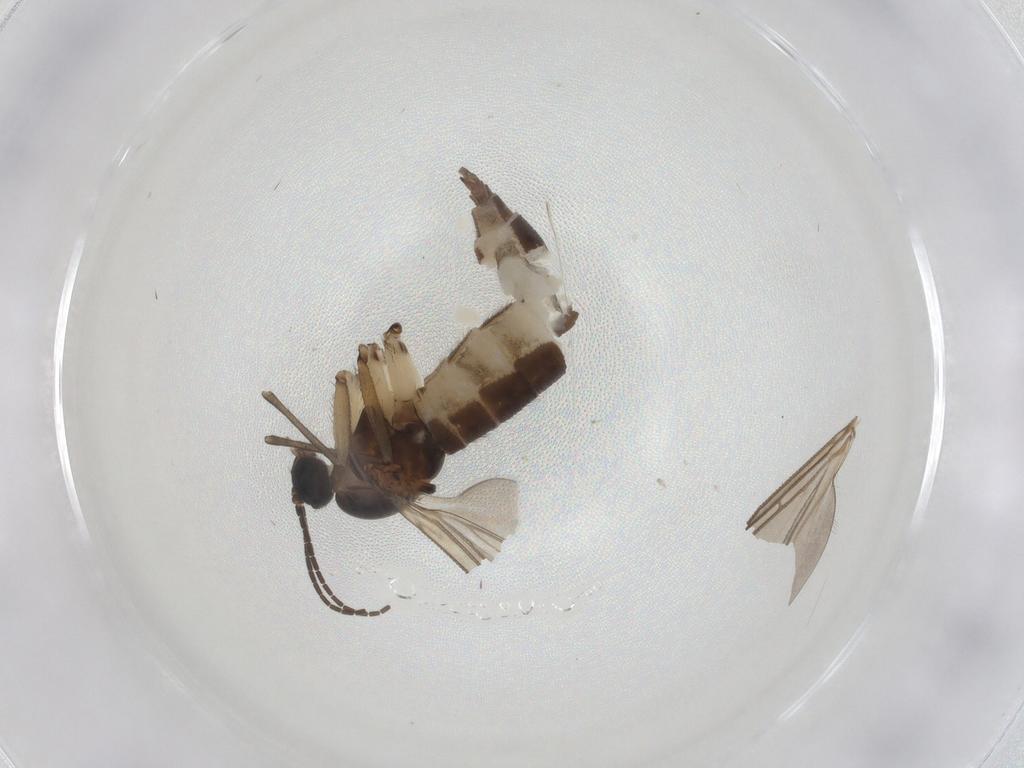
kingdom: Animalia
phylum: Arthropoda
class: Insecta
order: Diptera
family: Sciaridae
